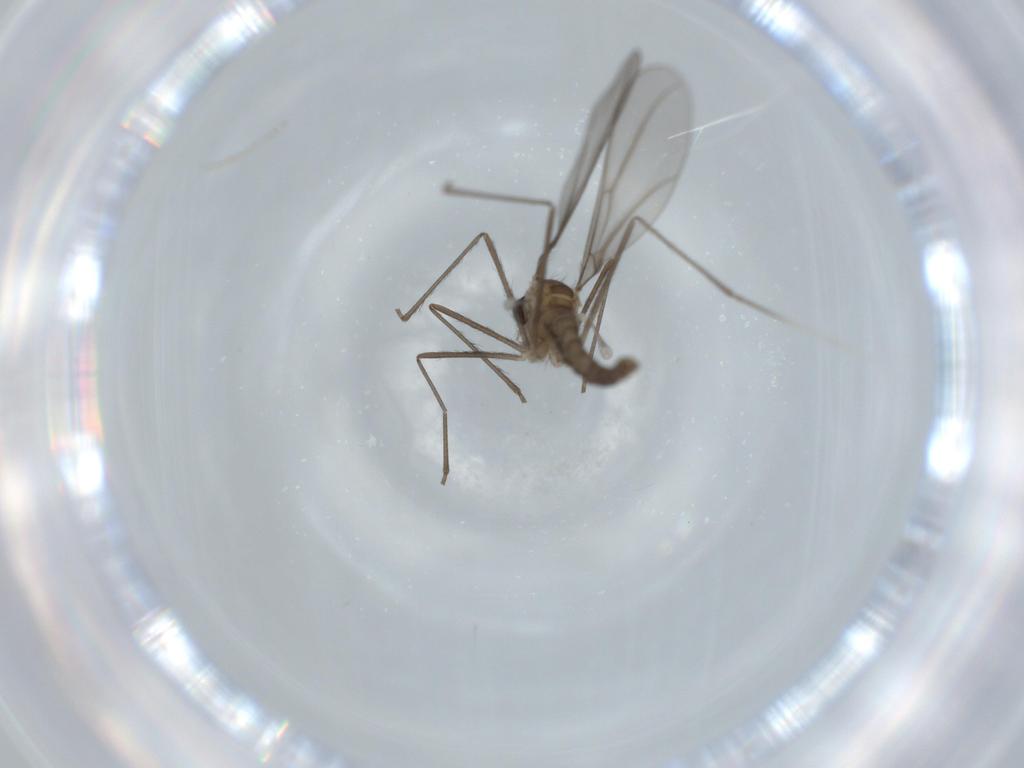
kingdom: Animalia
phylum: Arthropoda
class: Insecta
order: Diptera
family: Cecidomyiidae
